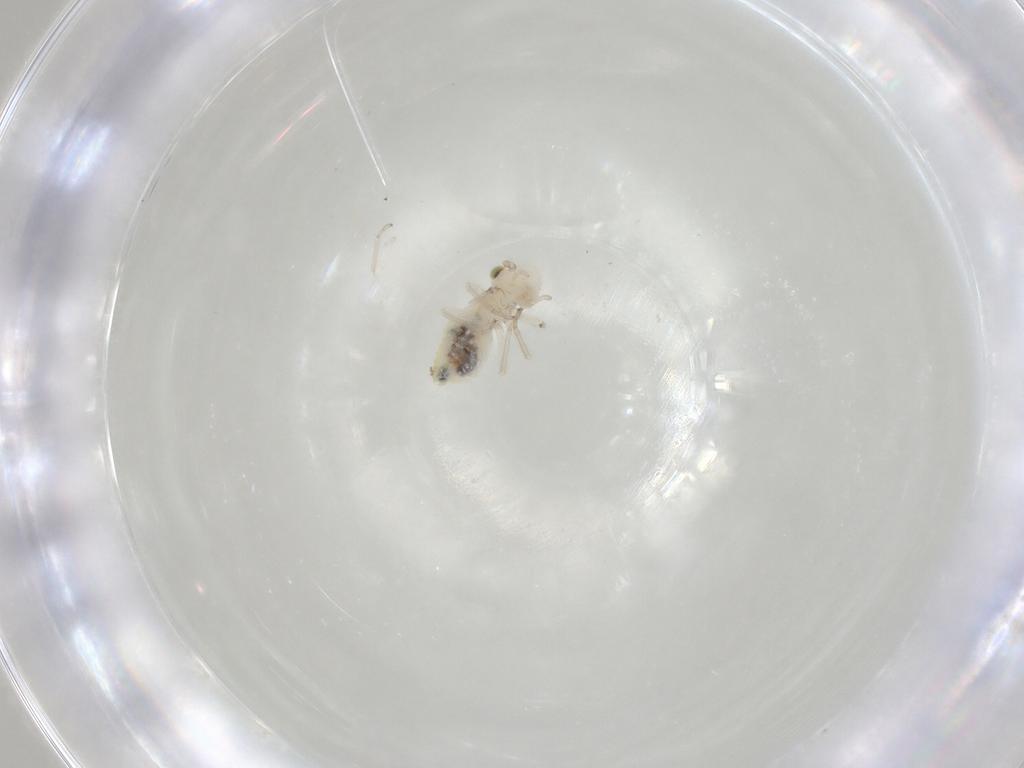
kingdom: Animalia
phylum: Arthropoda
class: Insecta
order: Psocodea
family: Caeciliusidae
